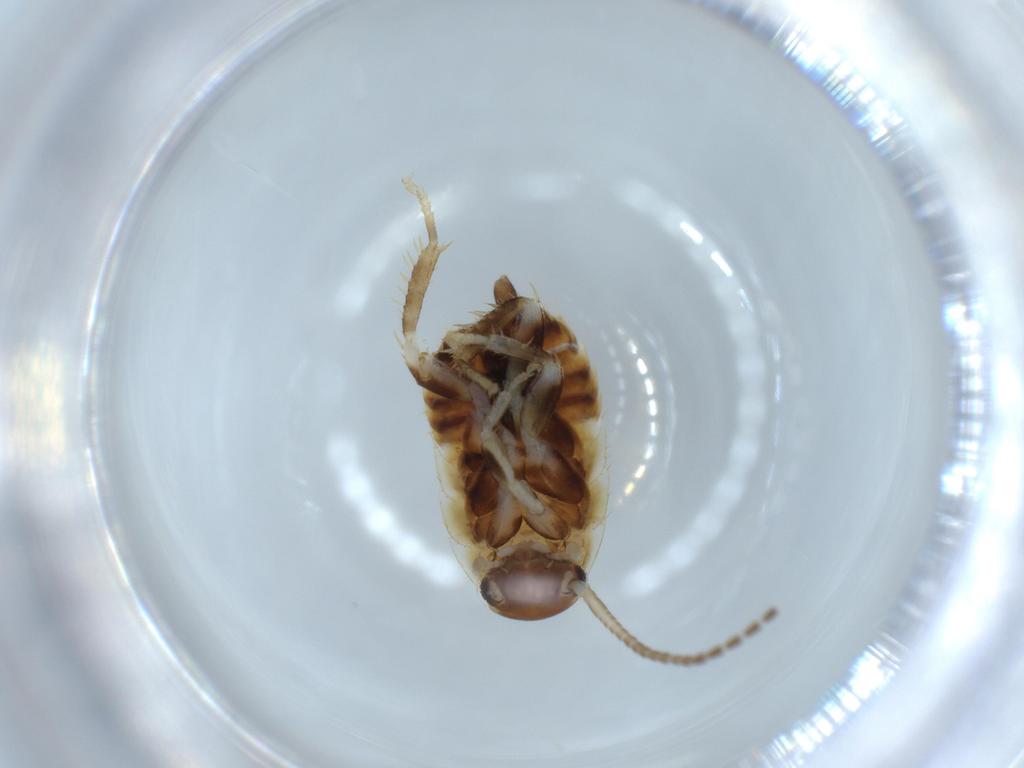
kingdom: Animalia
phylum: Arthropoda
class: Insecta
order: Blattodea
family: Ectobiidae
